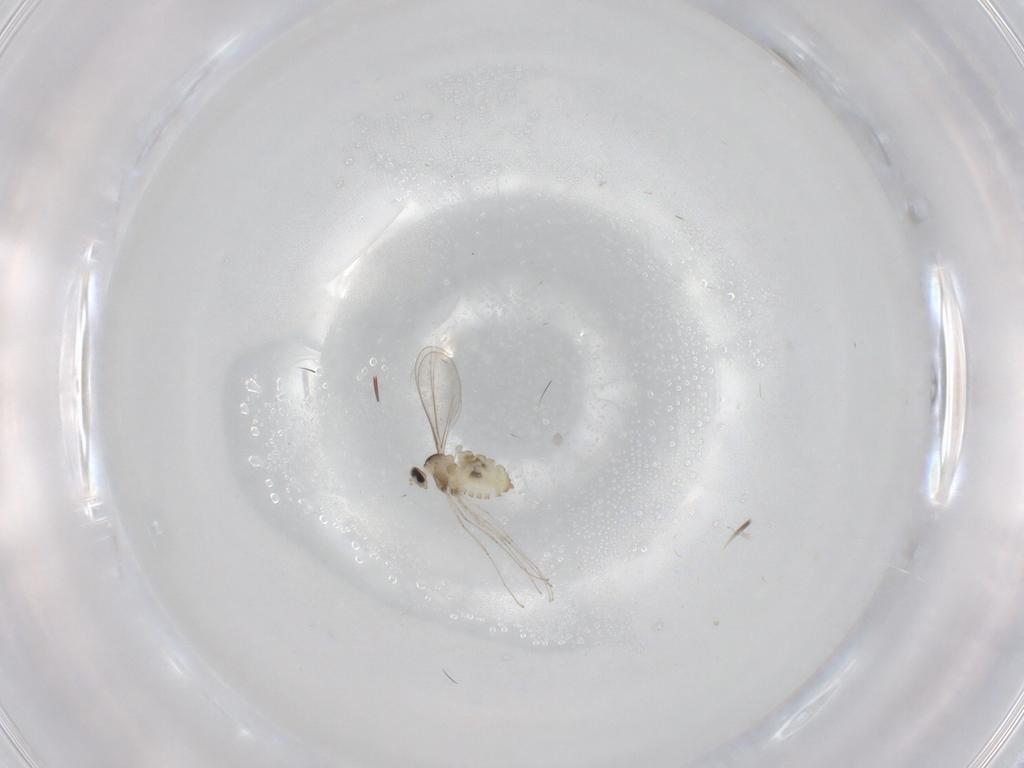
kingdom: Animalia
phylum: Arthropoda
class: Insecta
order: Diptera
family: Cecidomyiidae
